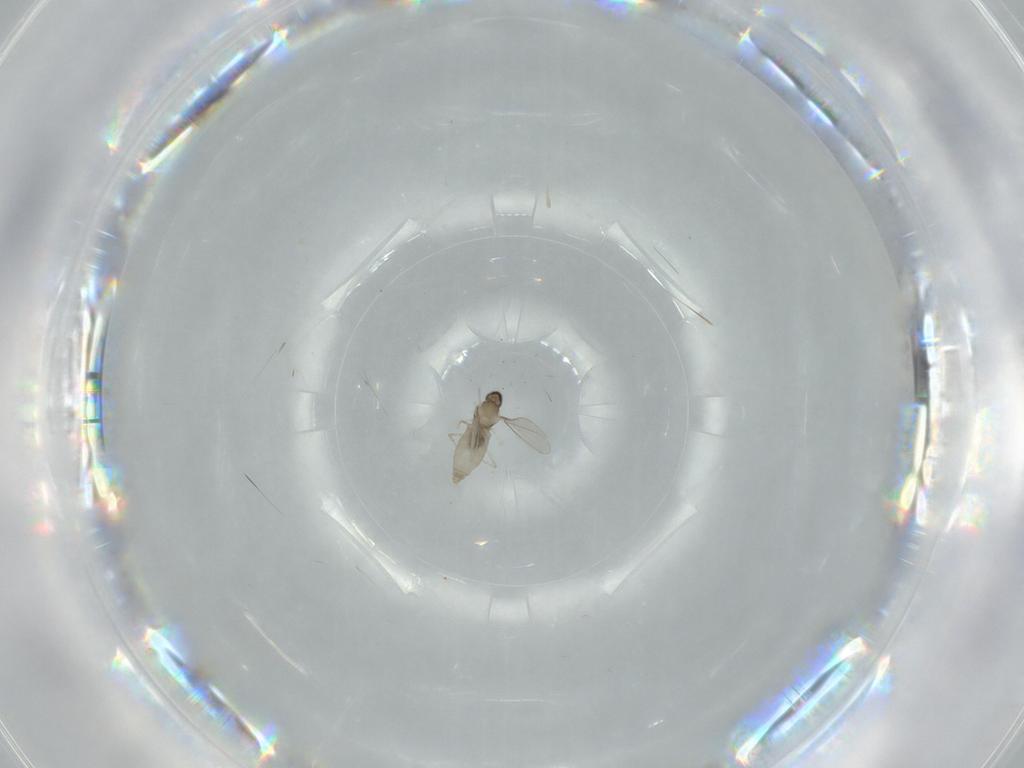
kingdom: Animalia
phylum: Arthropoda
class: Insecta
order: Diptera
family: Cecidomyiidae
